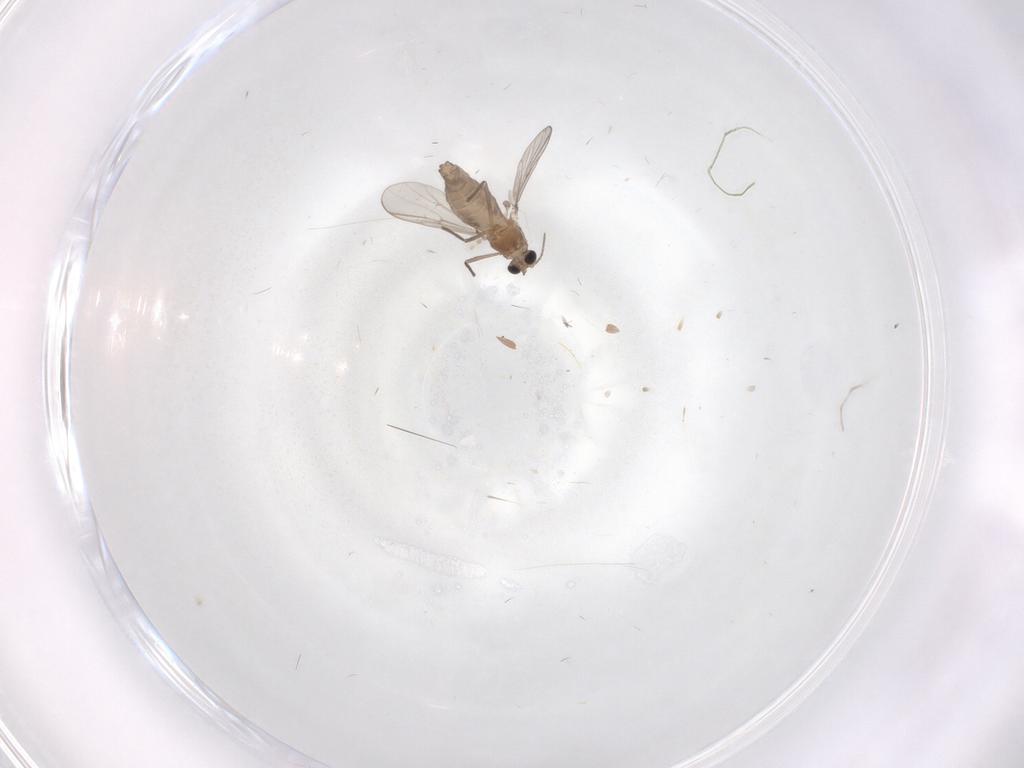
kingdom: Animalia
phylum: Arthropoda
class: Insecta
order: Diptera
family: Chironomidae
